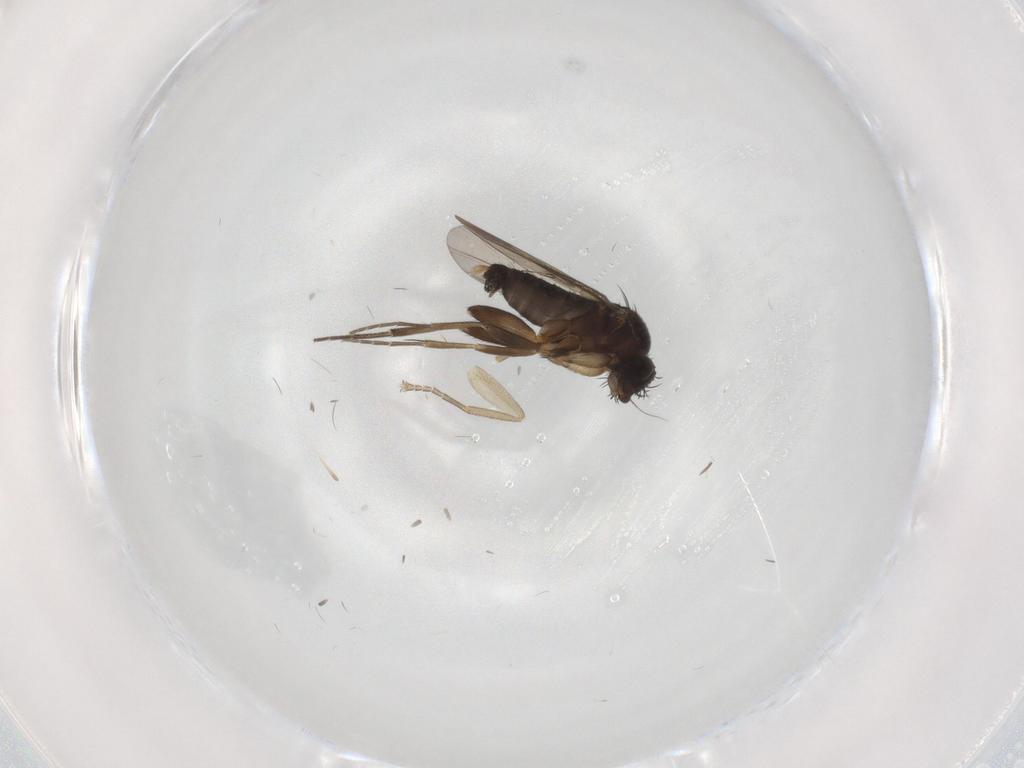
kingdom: Animalia
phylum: Arthropoda
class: Insecta
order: Diptera
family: Phoridae
